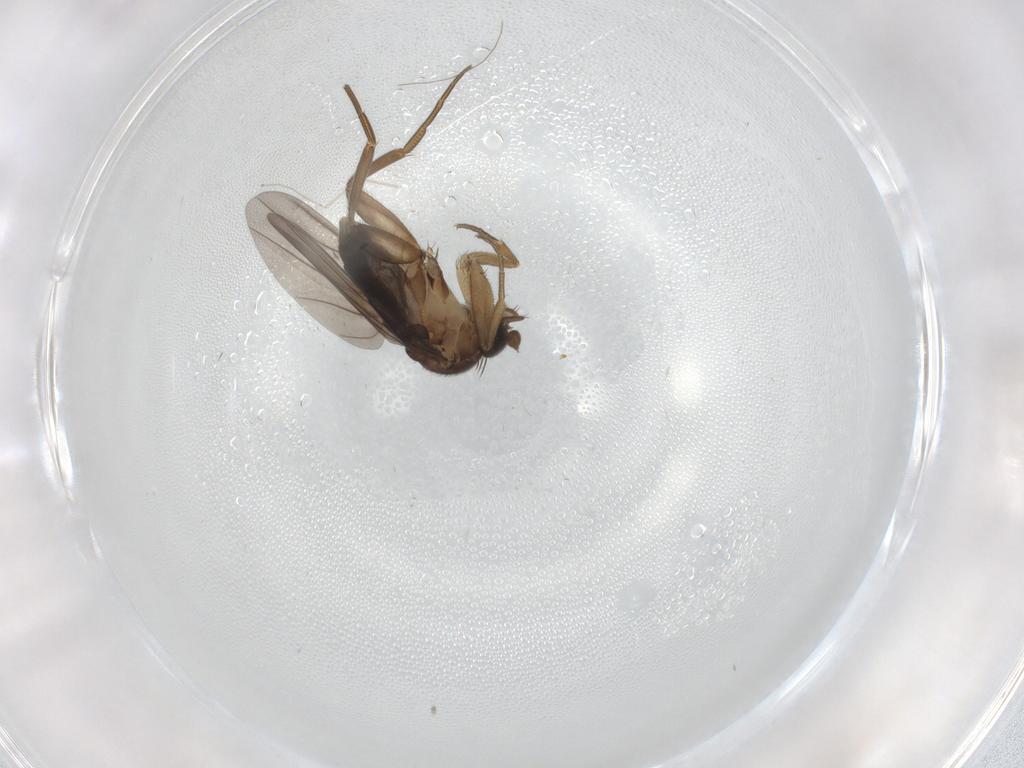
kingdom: Animalia
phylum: Arthropoda
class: Insecta
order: Diptera
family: Phoridae
